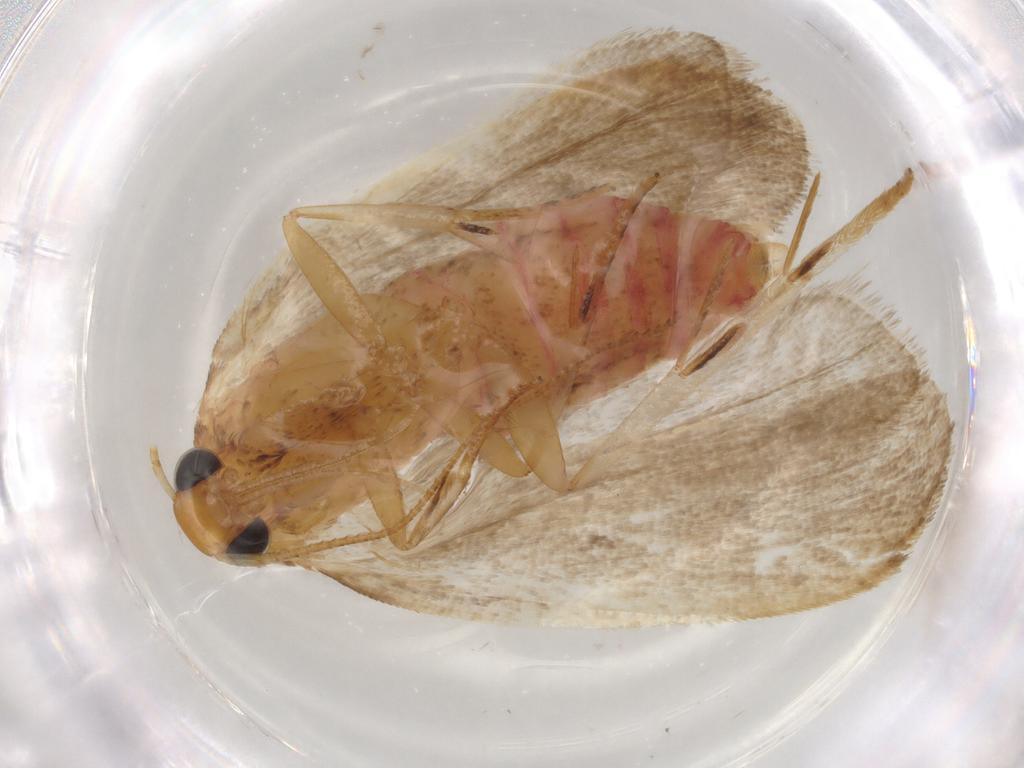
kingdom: Animalia
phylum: Arthropoda
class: Insecta
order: Lepidoptera
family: Autostichidae
